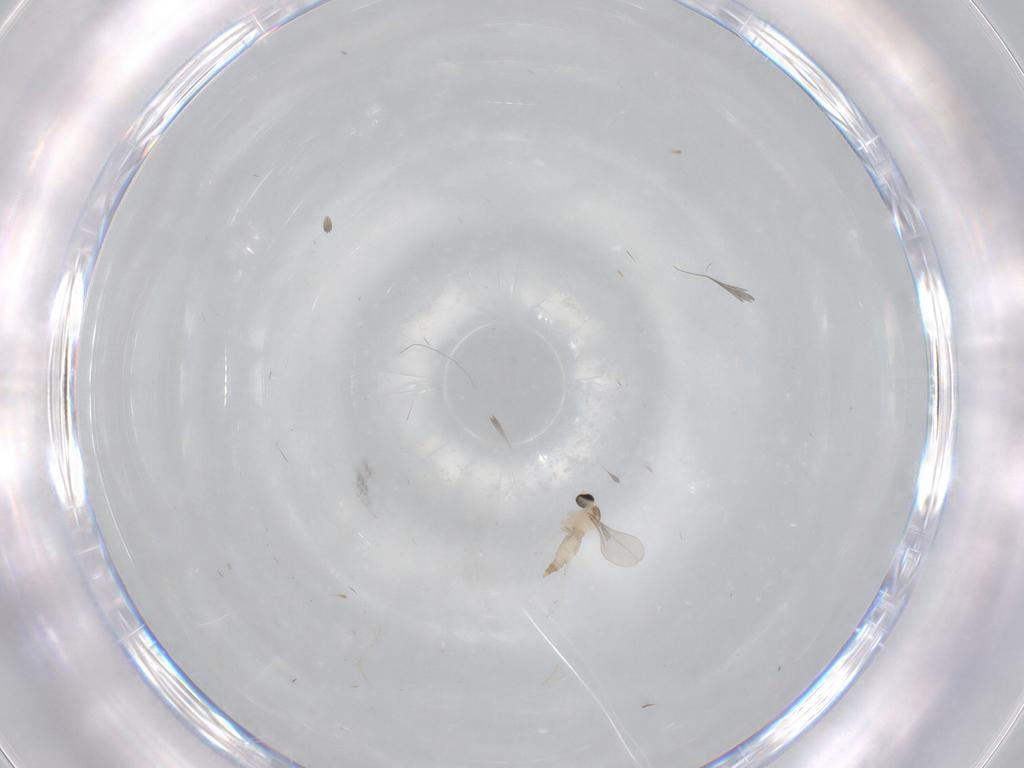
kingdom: Animalia
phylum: Arthropoda
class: Insecta
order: Diptera
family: Cecidomyiidae
